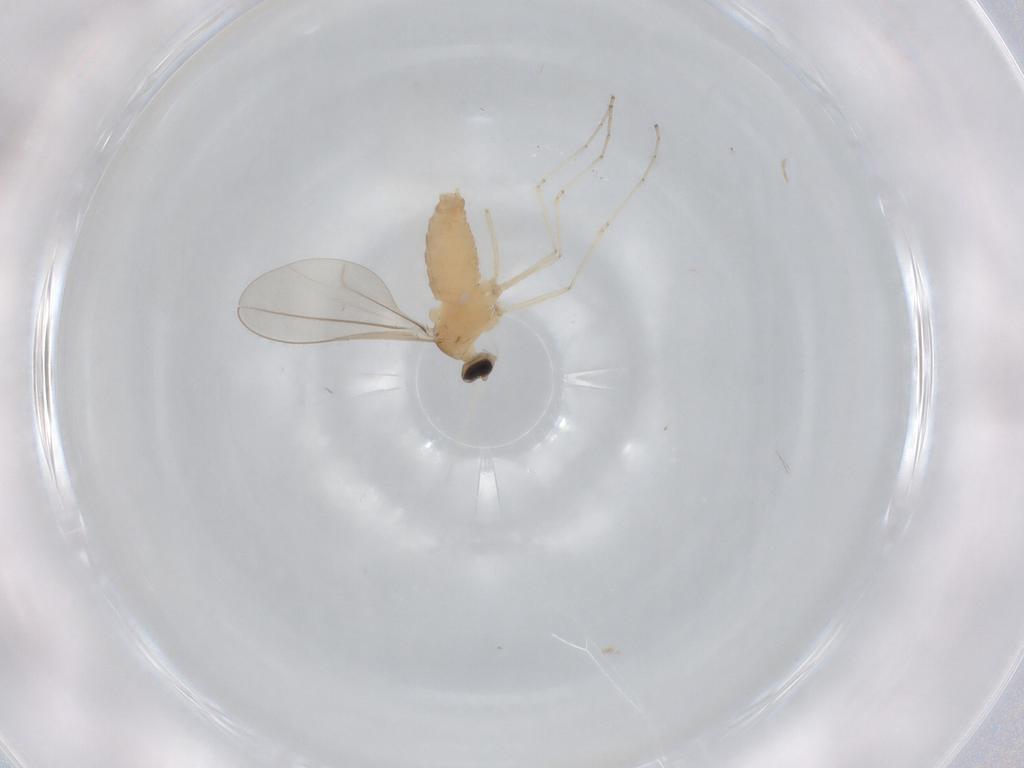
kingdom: Animalia
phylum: Arthropoda
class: Insecta
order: Diptera
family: Cecidomyiidae
